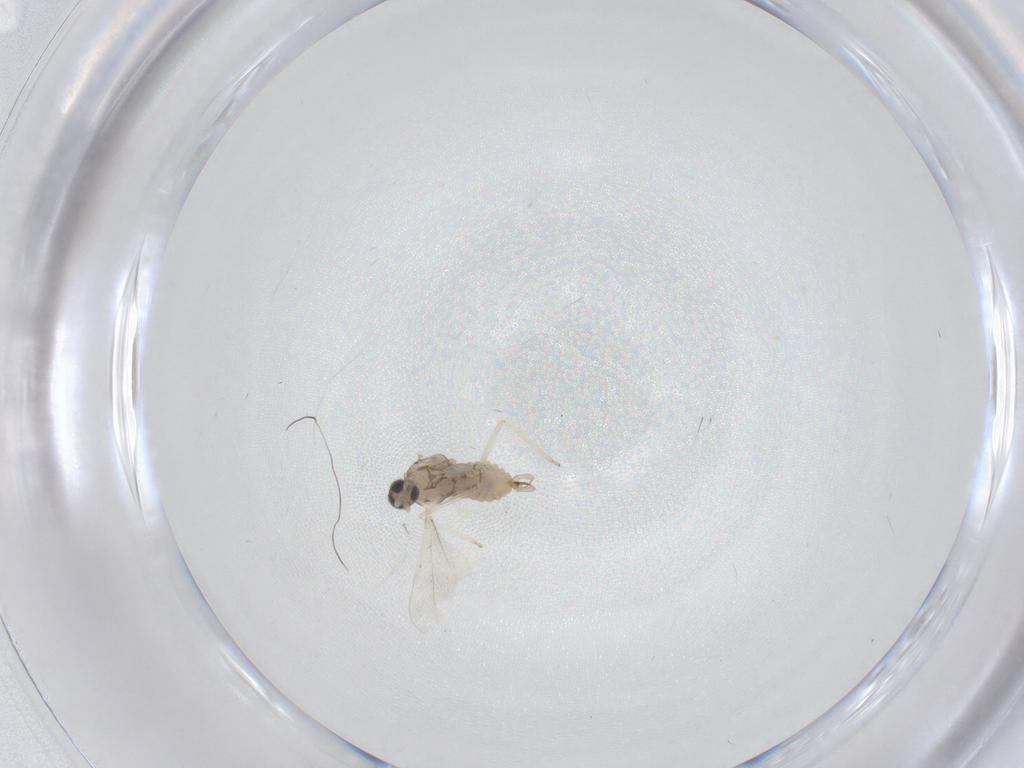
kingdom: Animalia
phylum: Arthropoda
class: Insecta
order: Diptera
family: Cecidomyiidae
